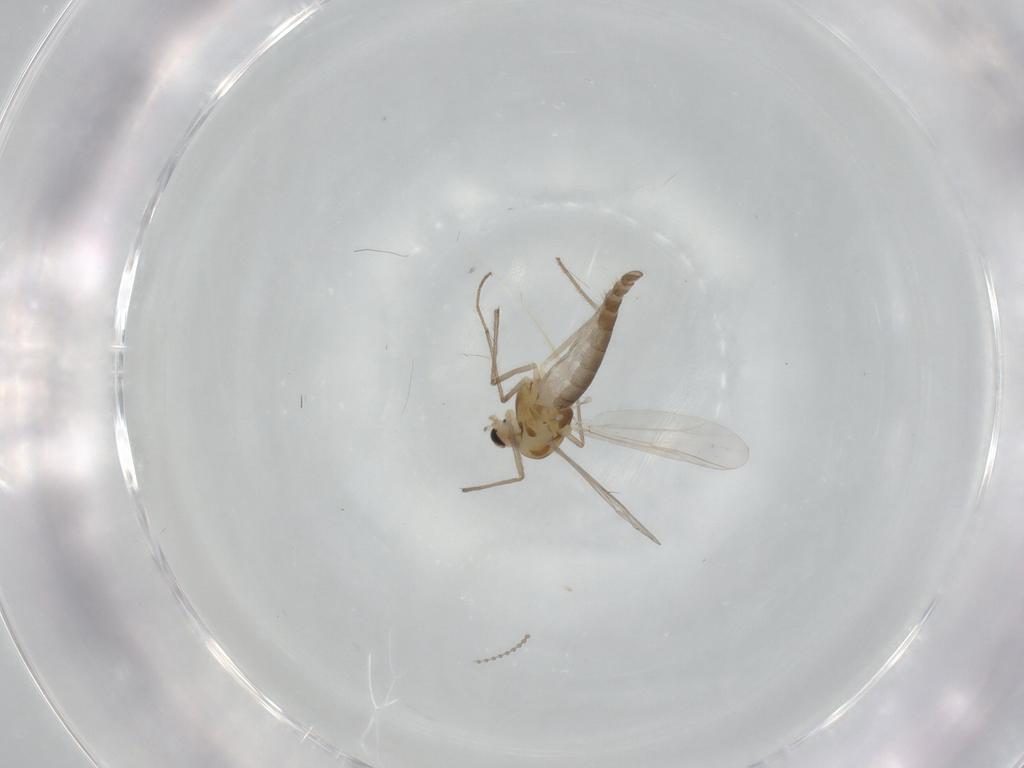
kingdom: Animalia
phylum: Arthropoda
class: Insecta
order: Diptera
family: Chironomidae
